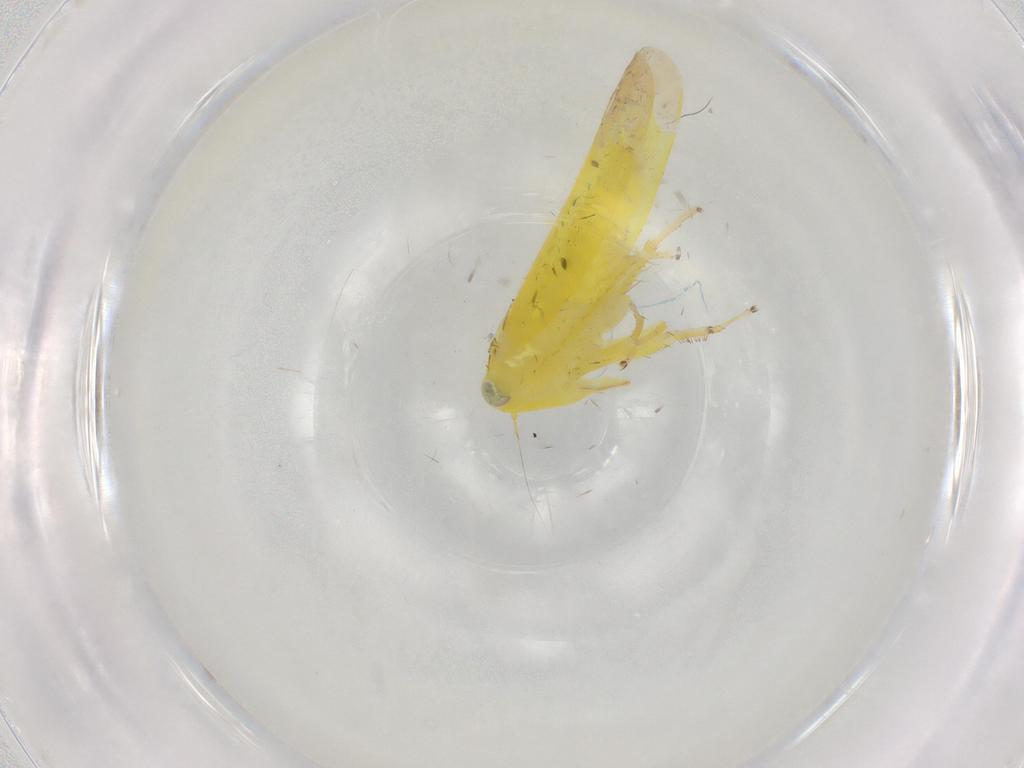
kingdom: Animalia
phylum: Arthropoda
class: Insecta
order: Hemiptera
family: Cicadellidae
